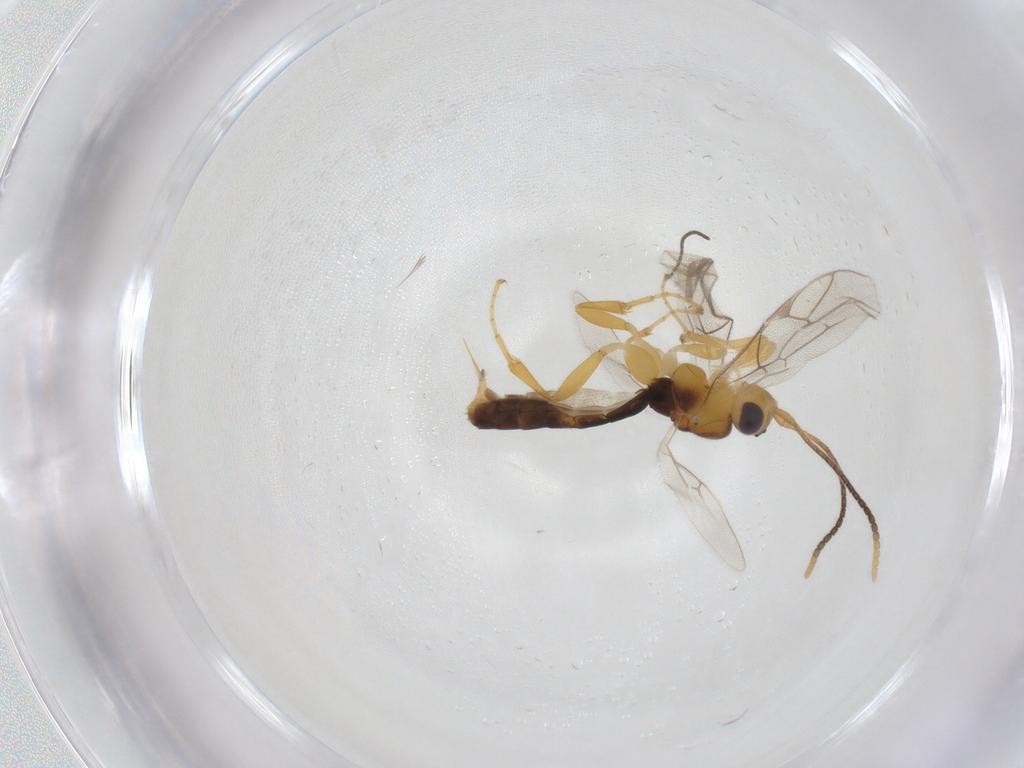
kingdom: Animalia
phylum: Arthropoda
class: Insecta
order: Hymenoptera
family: Ichneumonidae
